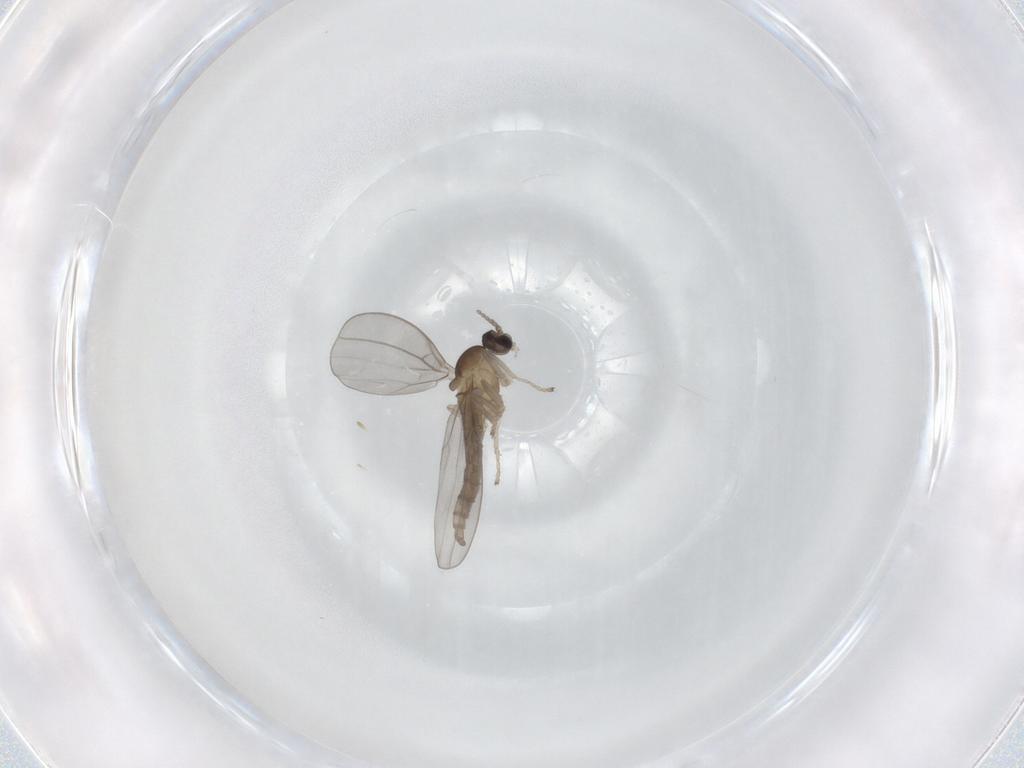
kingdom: Animalia
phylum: Arthropoda
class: Insecta
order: Diptera
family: Cecidomyiidae
